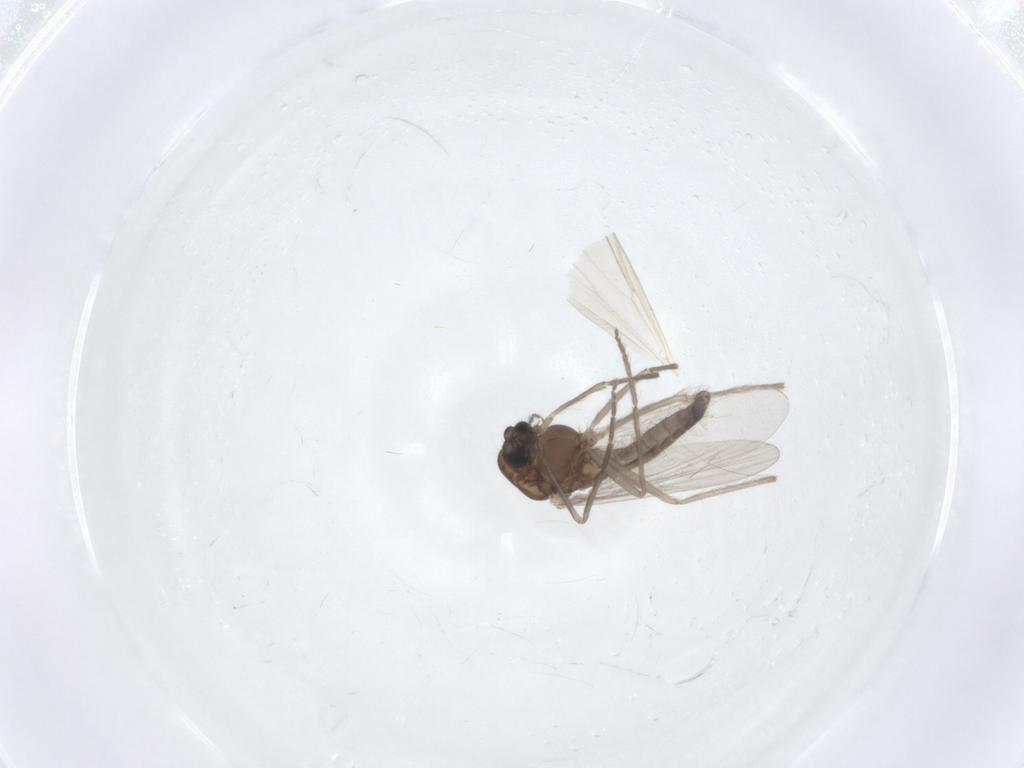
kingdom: Animalia
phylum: Arthropoda
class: Insecta
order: Diptera
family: Chironomidae
